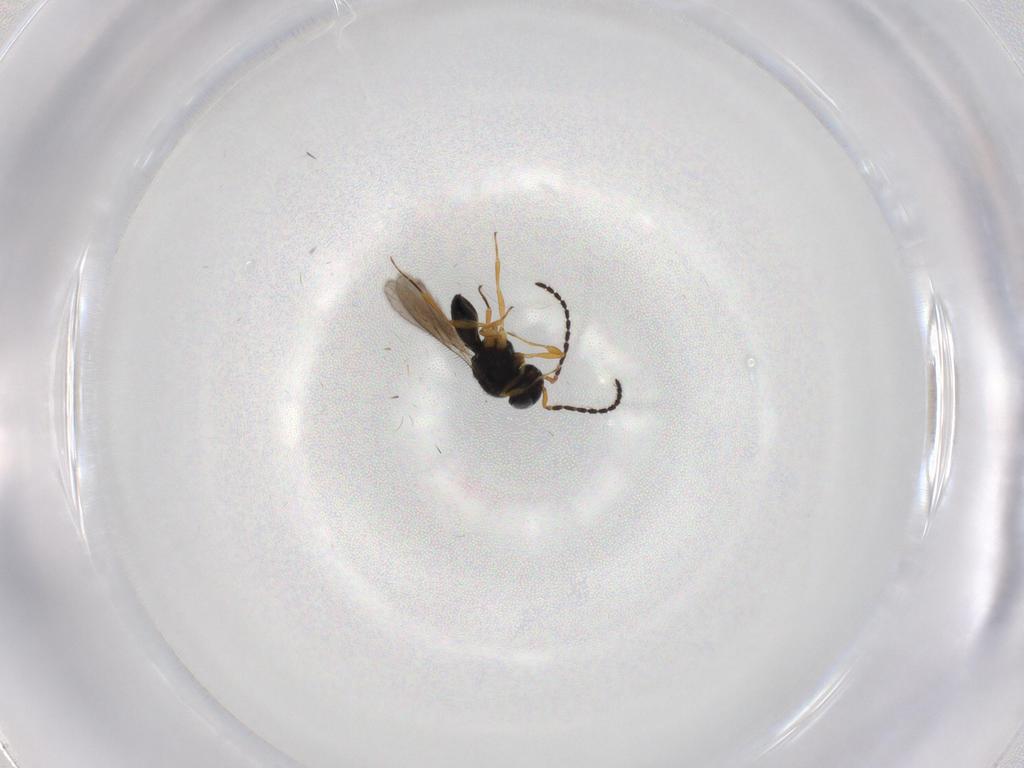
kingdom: Animalia
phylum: Arthropoda
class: Insecta
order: Hymenoptera
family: Scelionidae
